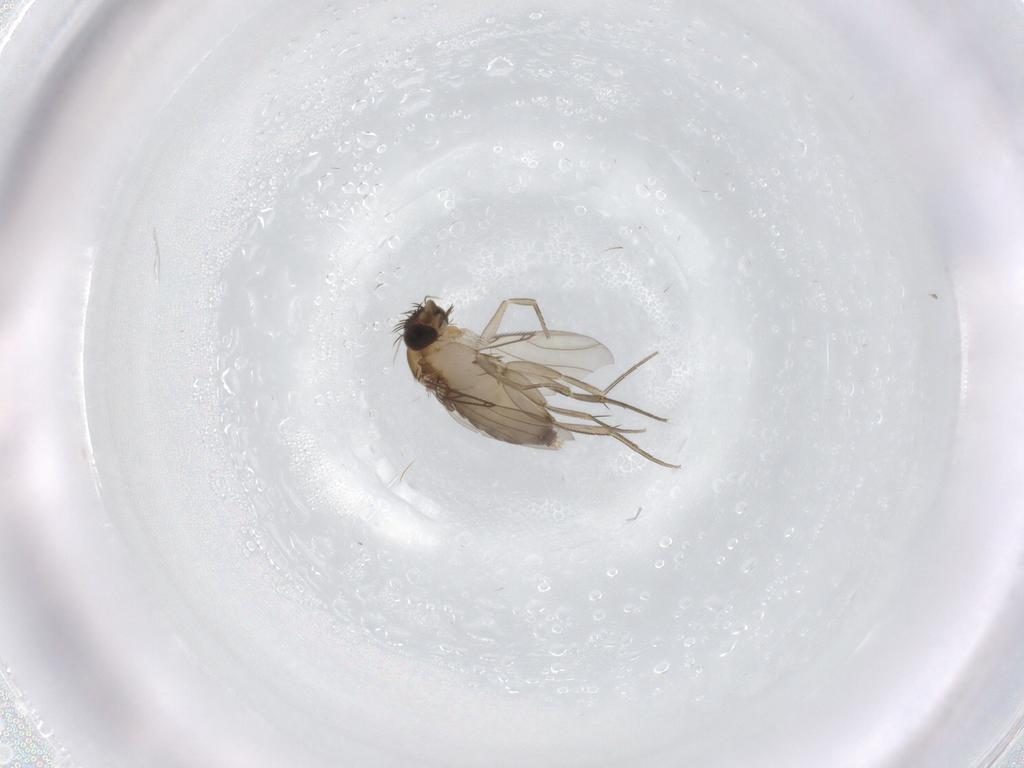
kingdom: Animalia
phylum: Arthropoda
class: Insecta
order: Diptera
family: Phoridae
